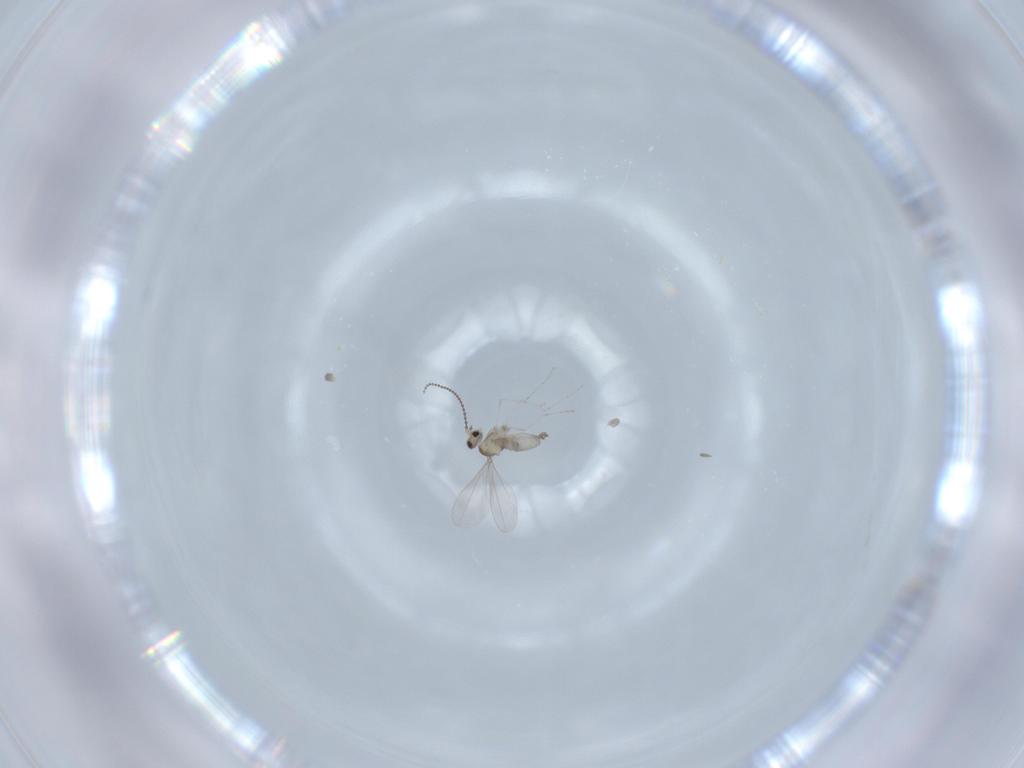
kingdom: Animalia
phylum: Arthropoda
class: Insecta
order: Diptera
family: Cecidomyiidae
